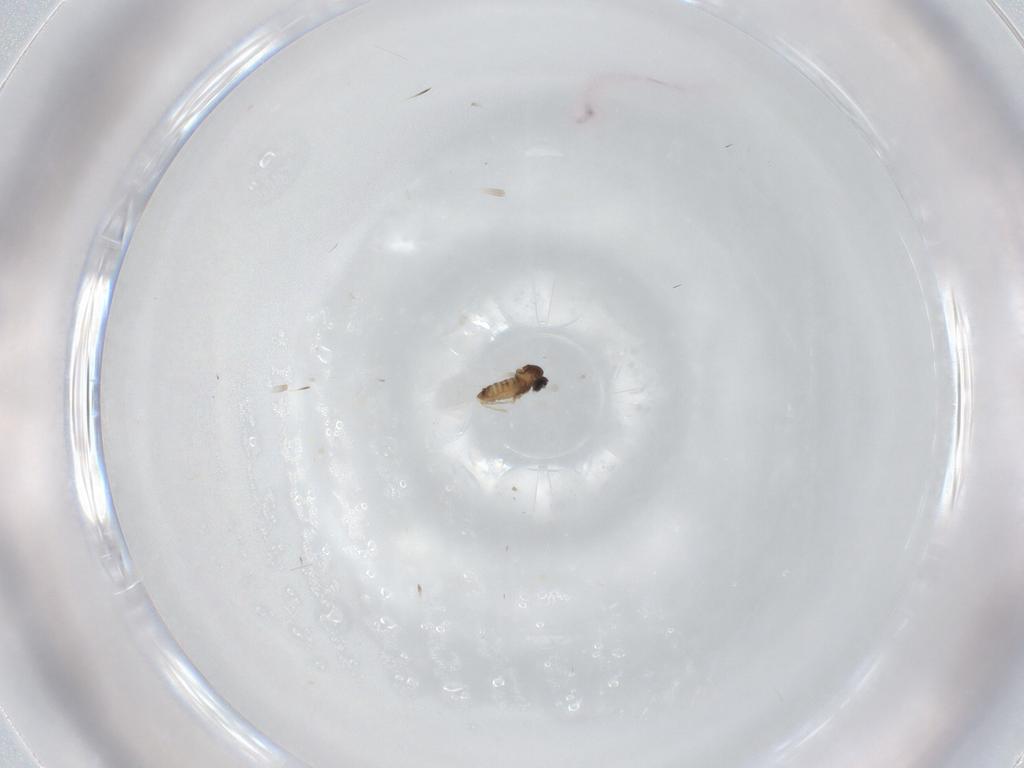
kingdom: Animalia
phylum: Arthropoda
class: Insecta
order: Diptera
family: Cecidomyiidae
